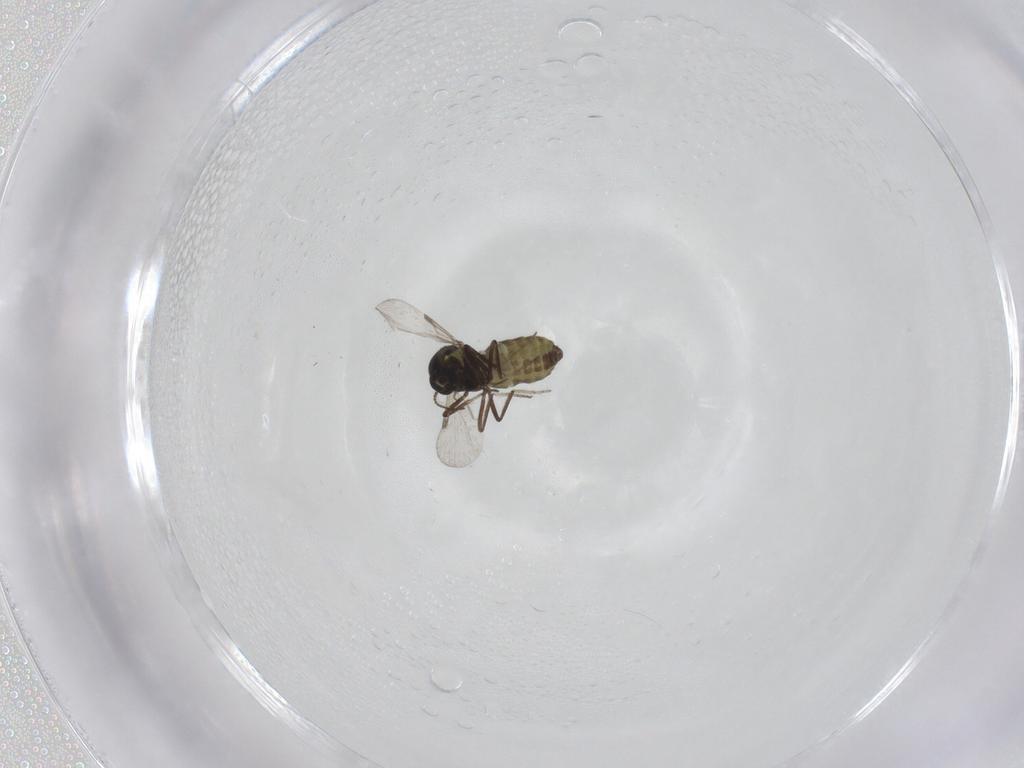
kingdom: Animalia
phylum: Arthropoda
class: Insecta
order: Diptera
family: Ceratopogonidae
